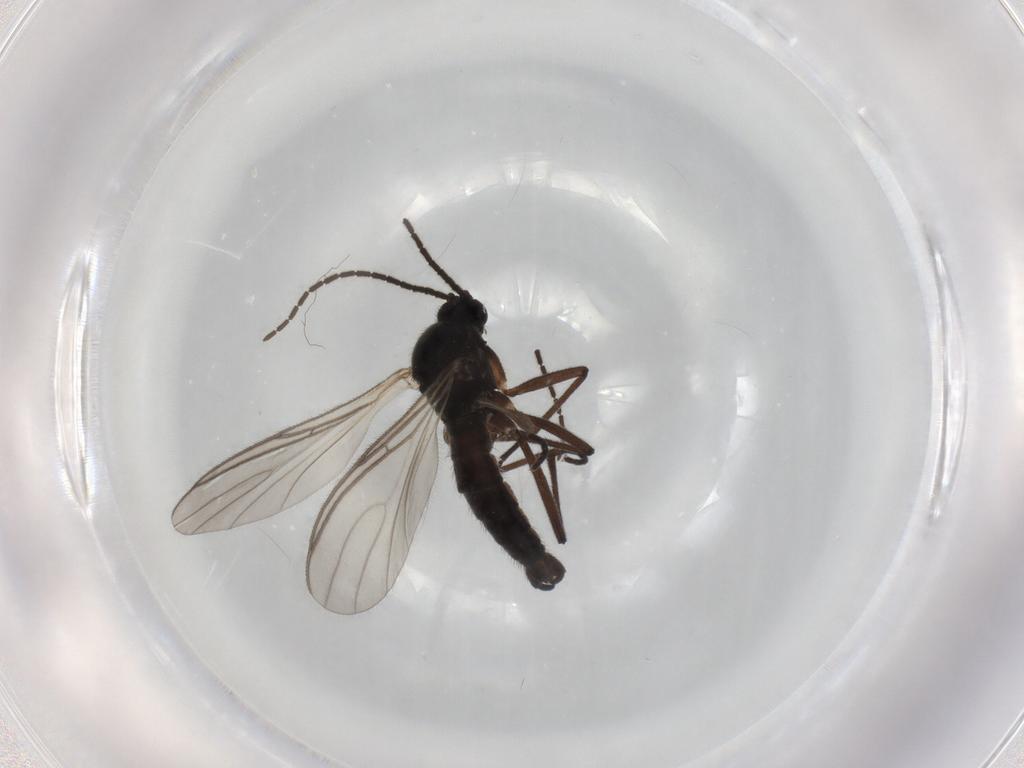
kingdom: Animalia
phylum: Arthropoda
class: Insecta
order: Diptera
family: Sciaridae
